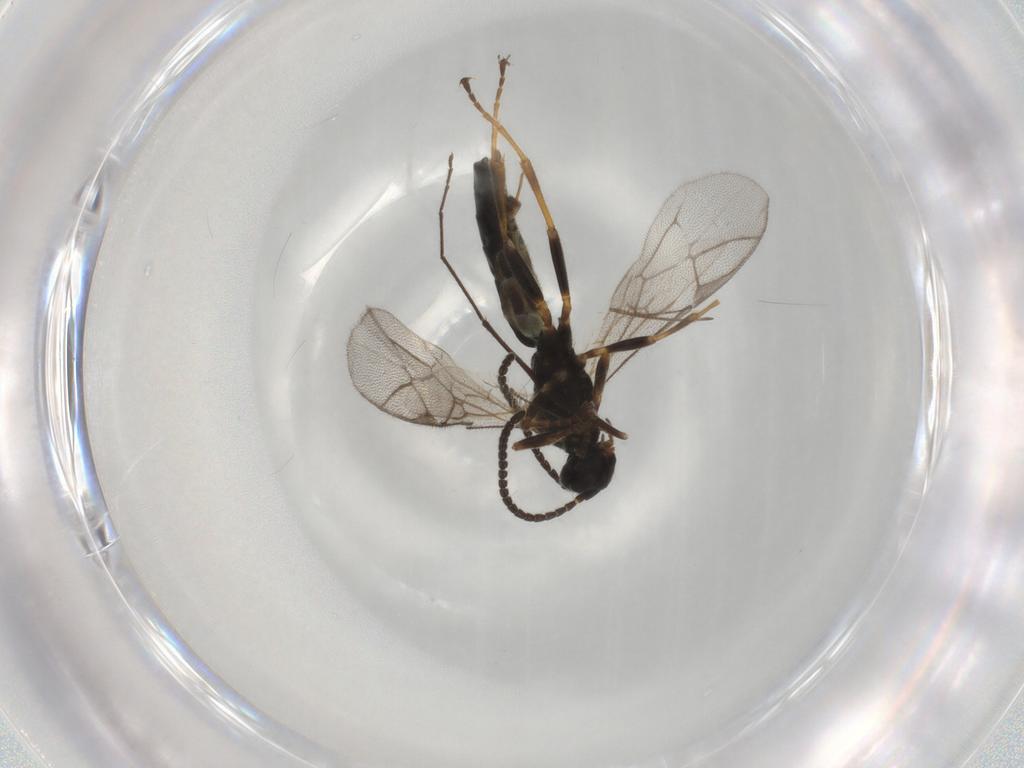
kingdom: Animalia
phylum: Arthropoda
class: Insecta
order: Hymenoptera
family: Ichneumonidae
